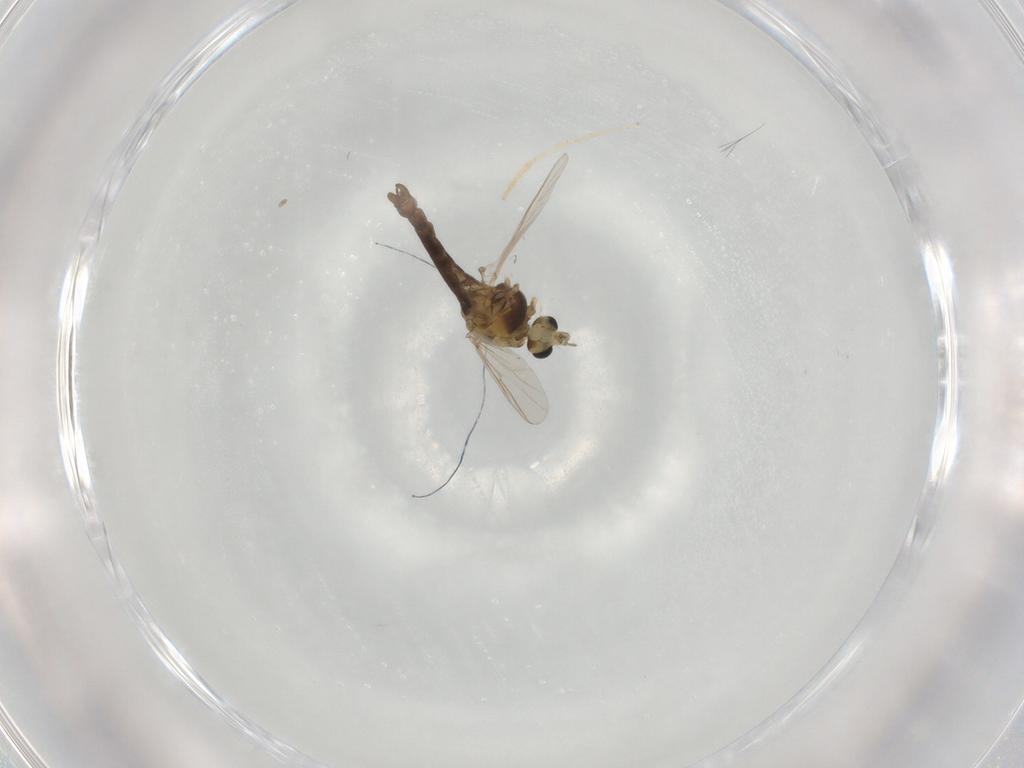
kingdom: Animalia
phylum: Arthropoda
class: Insecta
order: Diptera
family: Chironomidae
